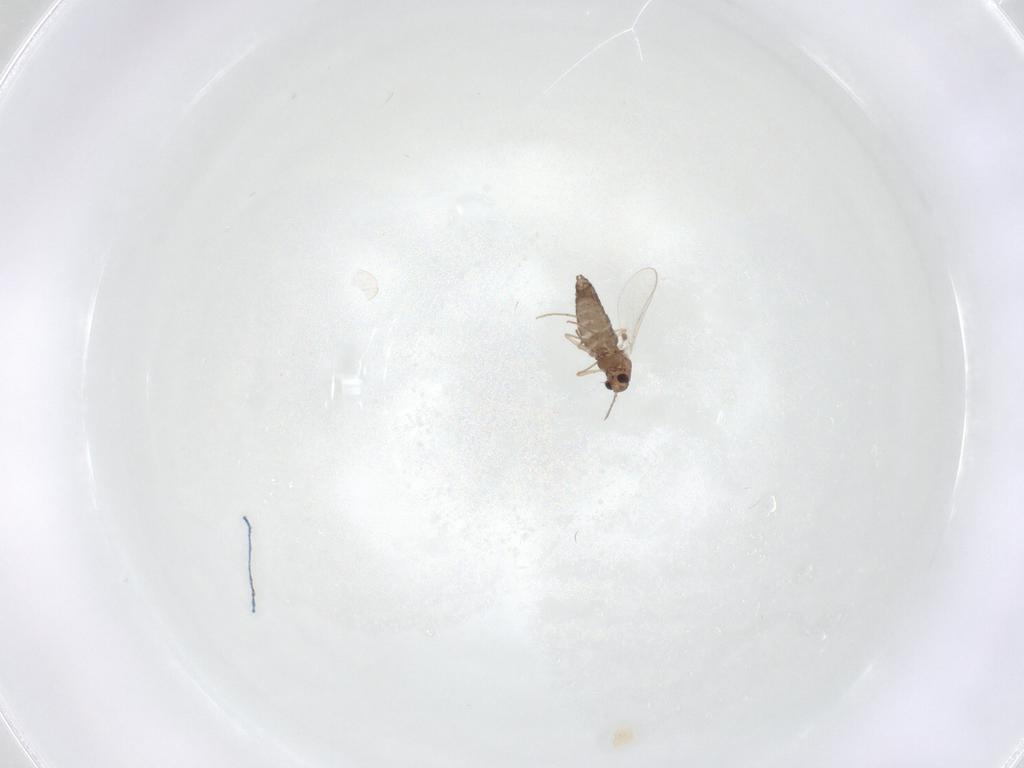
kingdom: Animalia
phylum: Arthropoda
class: Insecta
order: Diptera
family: Chironomidae
